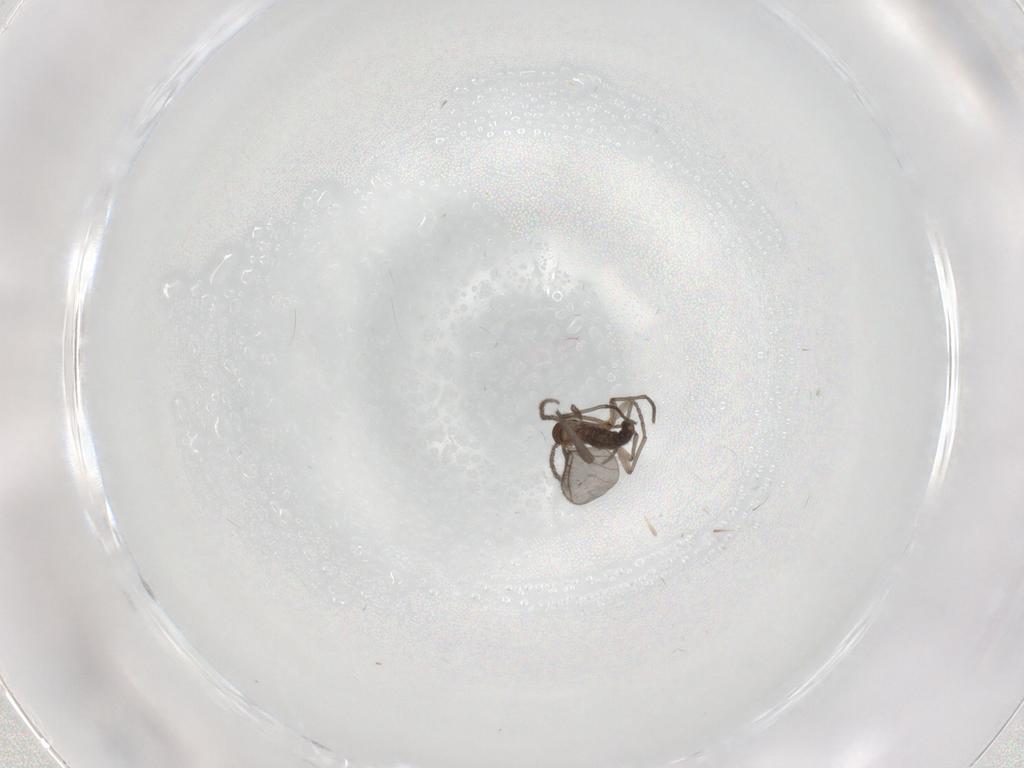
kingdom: Animalia
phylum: Arthropoda
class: Insecta
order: Diptera
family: Sciaridae
